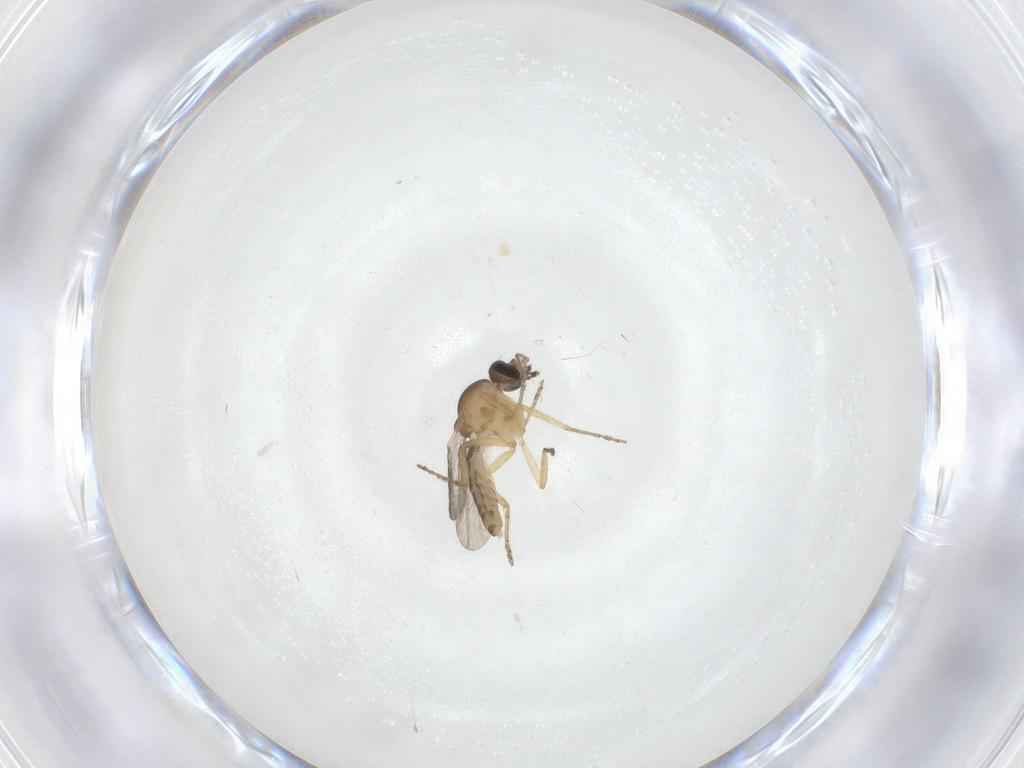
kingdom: Animalia
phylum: Arthropoda
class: Insecta
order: Diptera
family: Ceratopogonidae
